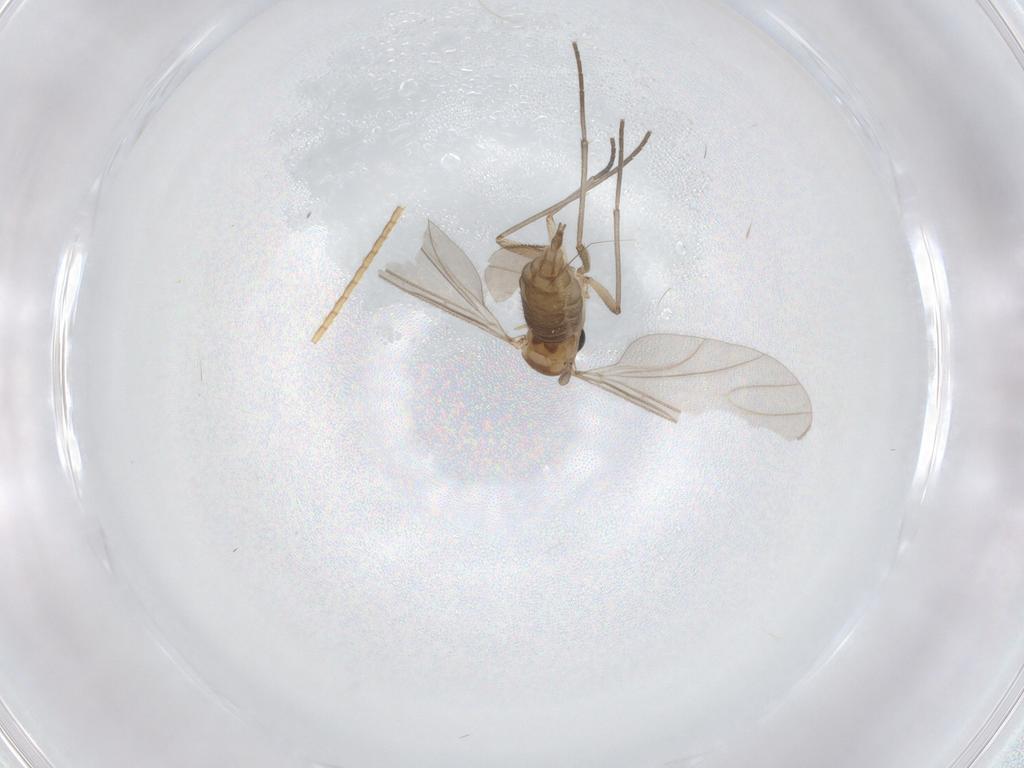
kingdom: Animalia
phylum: Arthropoda
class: Insecta
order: Diptera
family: Sciaridae
